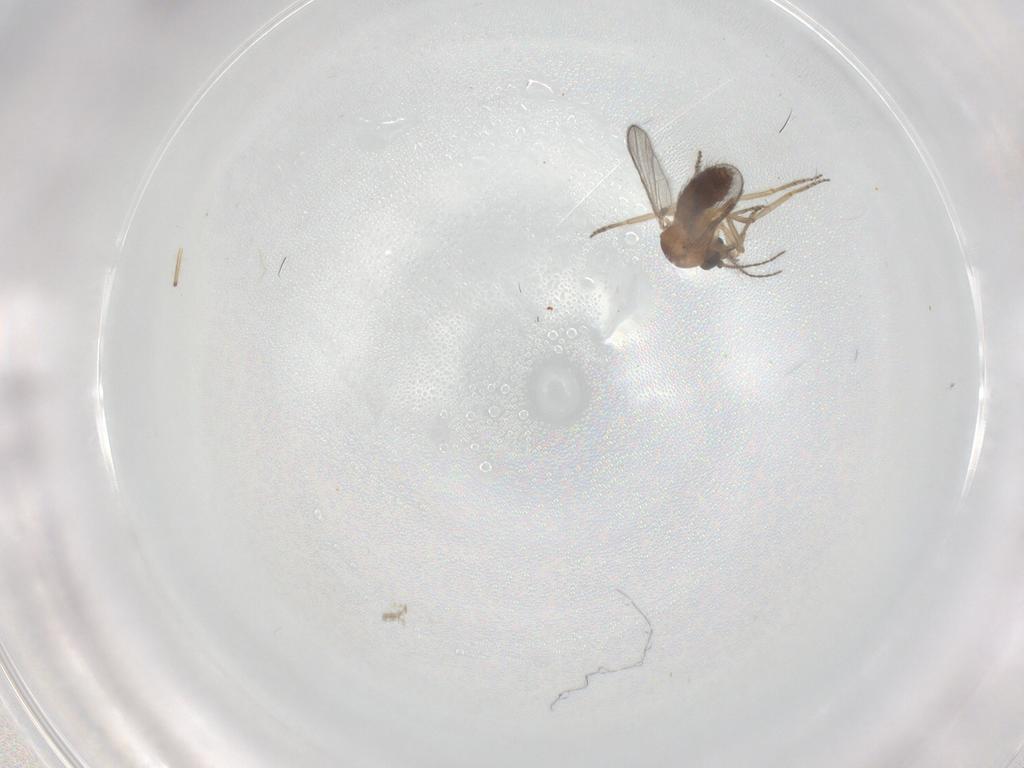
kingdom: Animalia
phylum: Arthropoda
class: Insecta
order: Diptera
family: Ceratopogonidae
